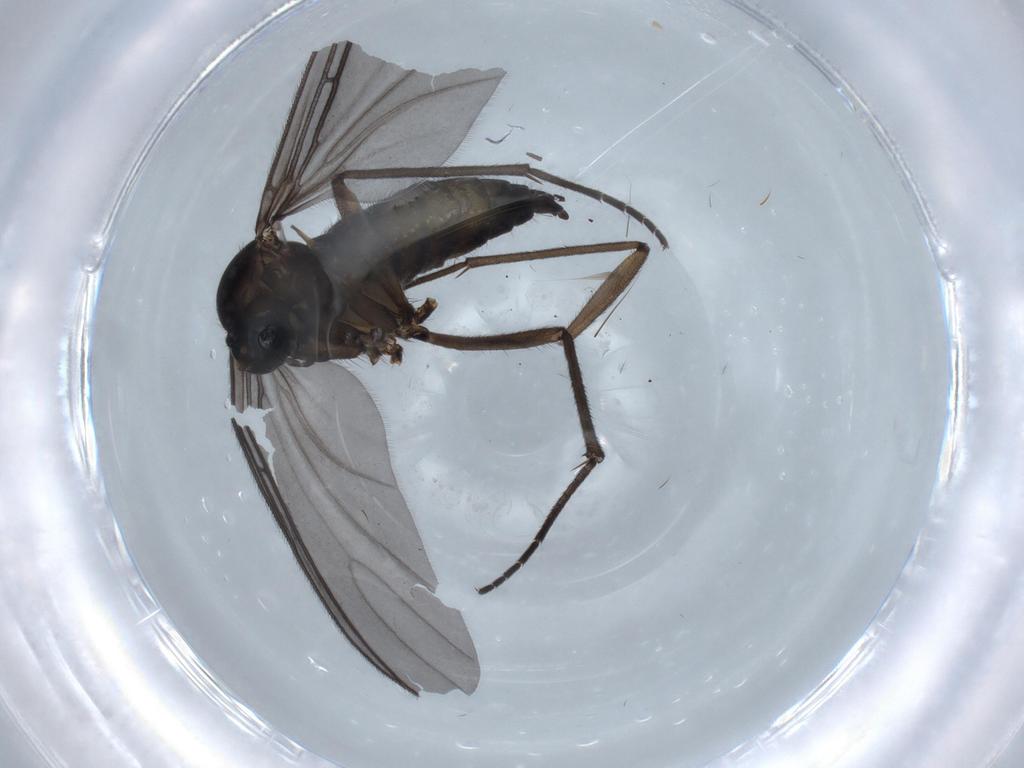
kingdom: Animalia
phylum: Arthropoda
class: Insecta
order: Diptera
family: Sciaridae
